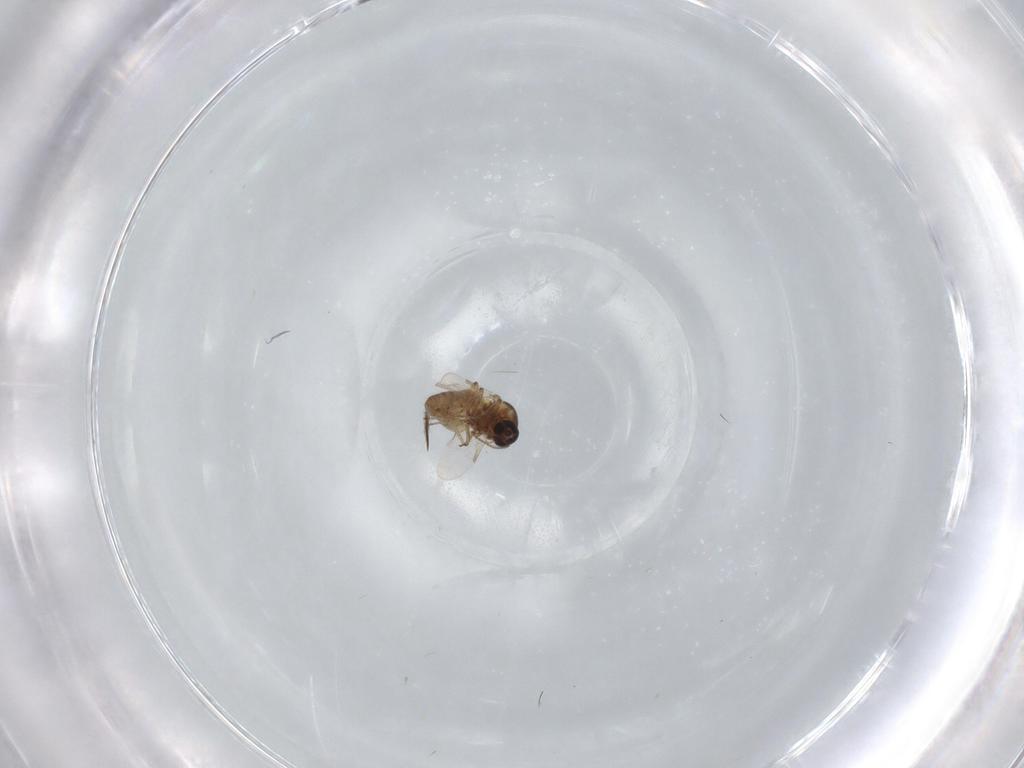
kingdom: Animalia
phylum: Arthropoda
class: Insecta
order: Diptera
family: Ceratopogonidae
